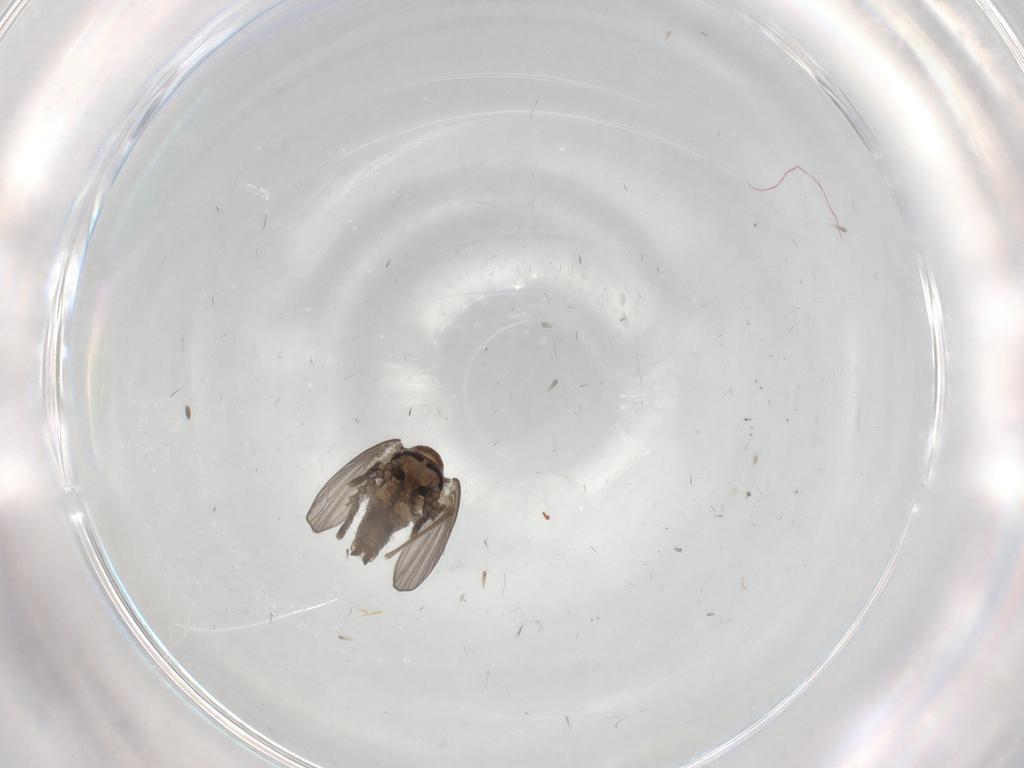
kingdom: Animalia
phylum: Arthropoda
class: Insecta
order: Diptera
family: Psychodidae
